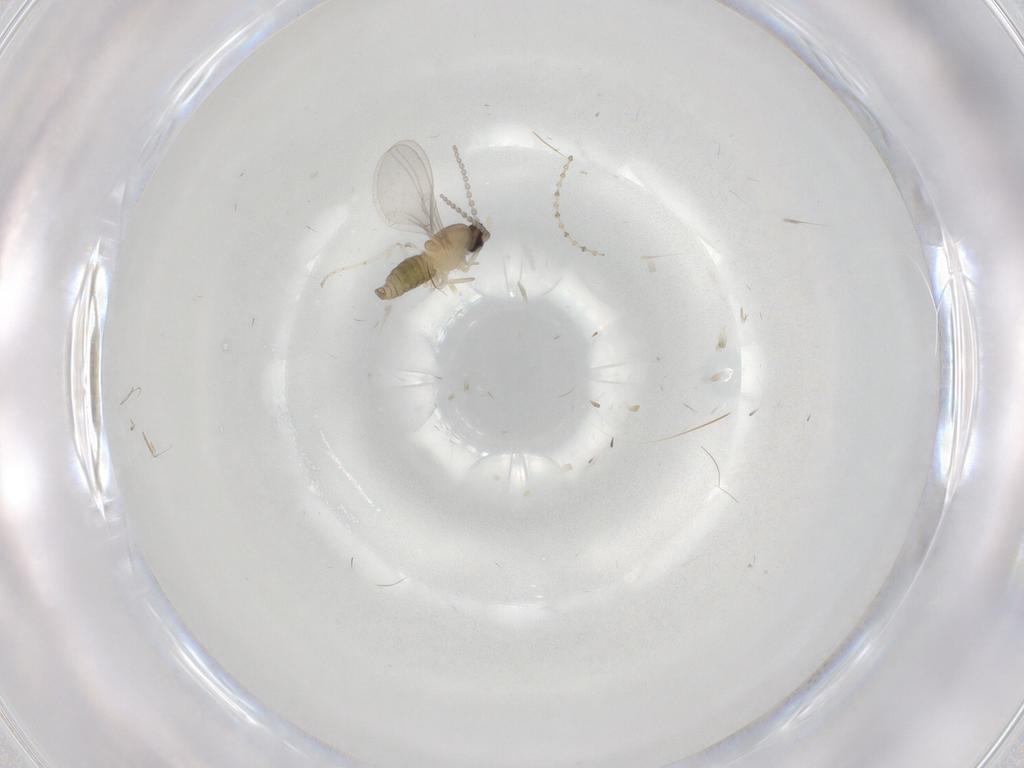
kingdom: Animalia
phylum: Arthropoda
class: Insecta
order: Diptera
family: Cecidomyiidae
